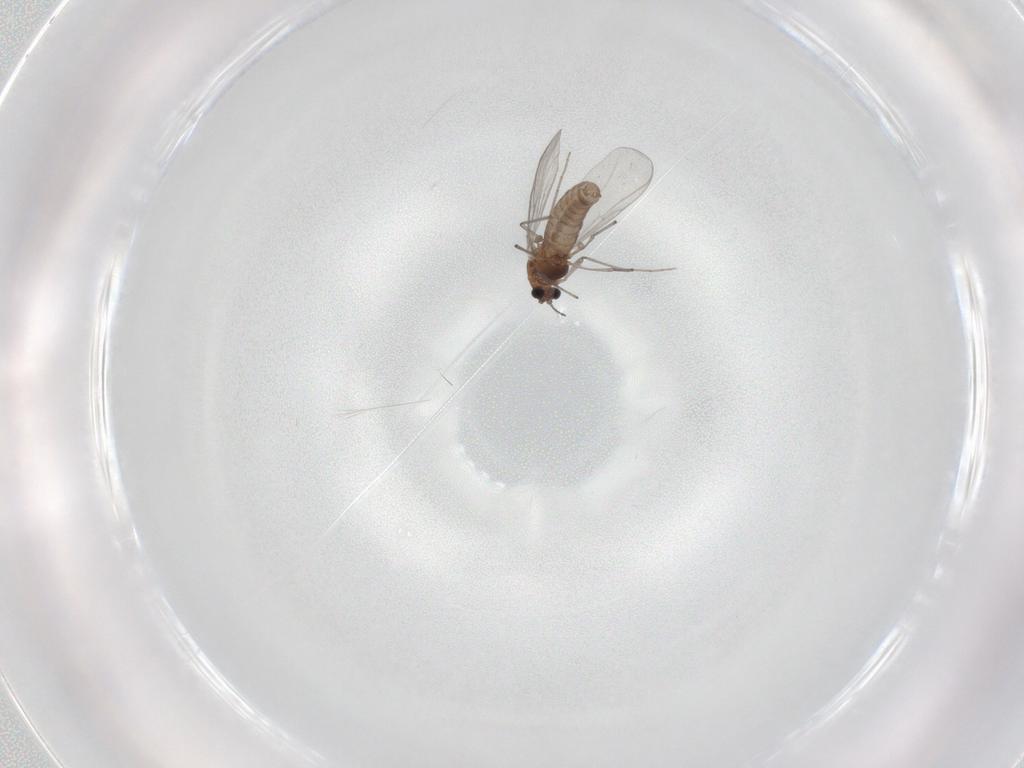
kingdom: Animalia
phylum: Arthropoda
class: Insecta
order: Diptera
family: Chironomidae
